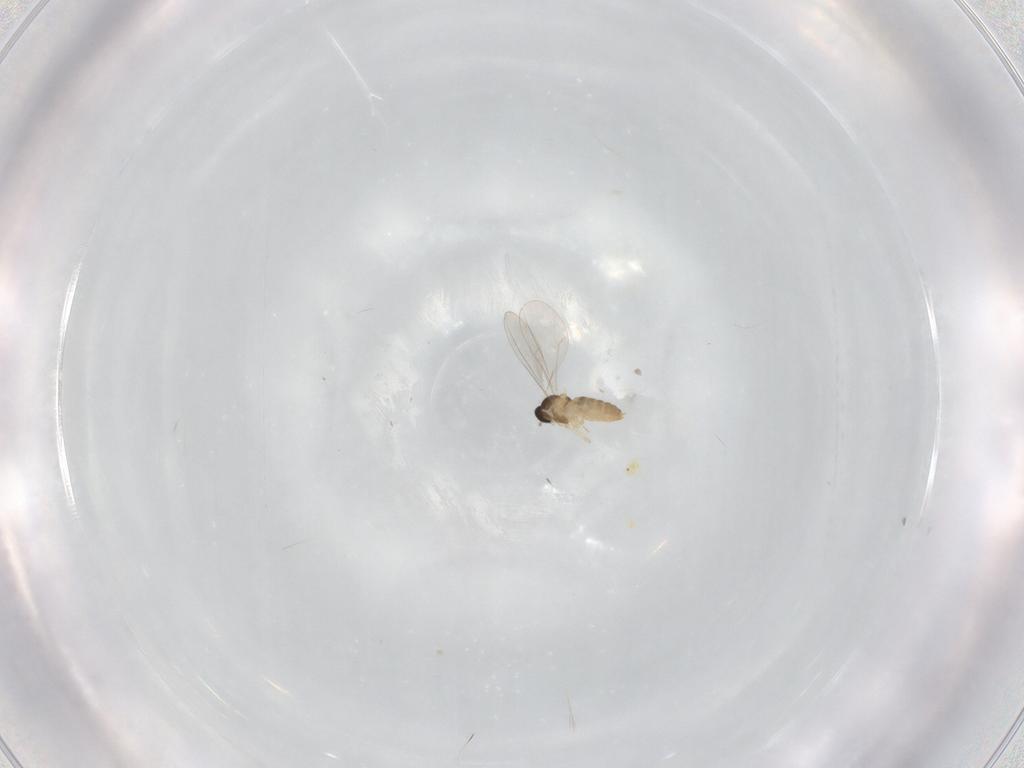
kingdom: Animalia
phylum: Arthropoda
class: Insecta
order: Diptera
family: Cecidomyiidae
